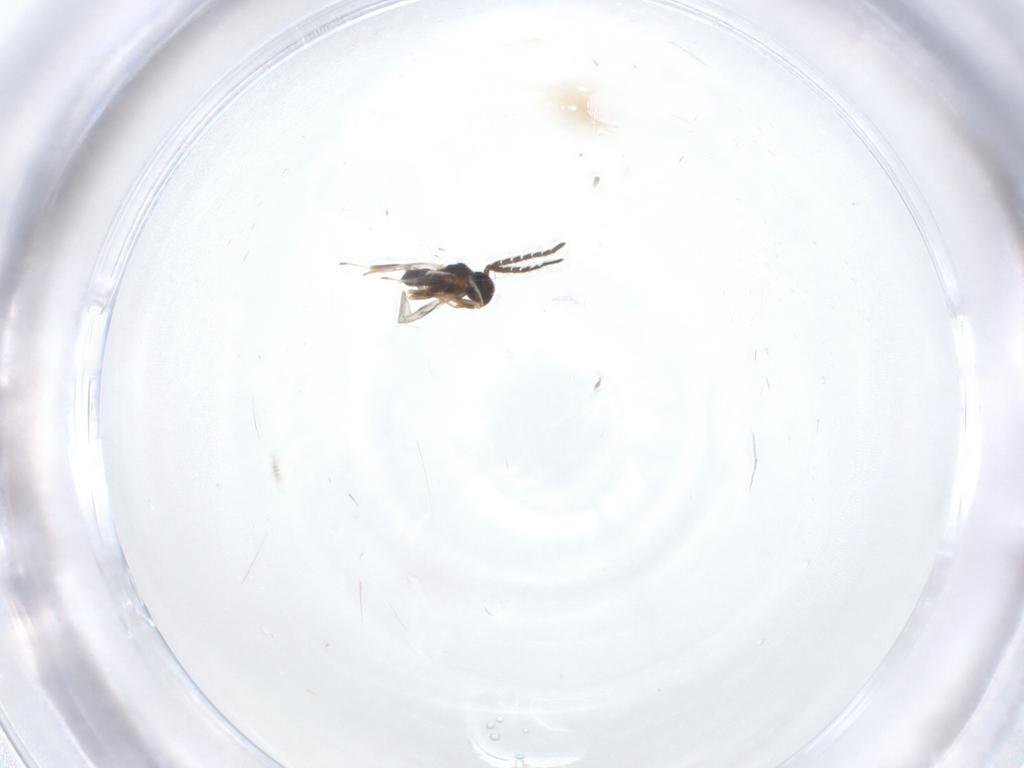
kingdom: Animalia
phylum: Arthropoda
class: Insecta
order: Hymenoptera
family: Encyrtidae
